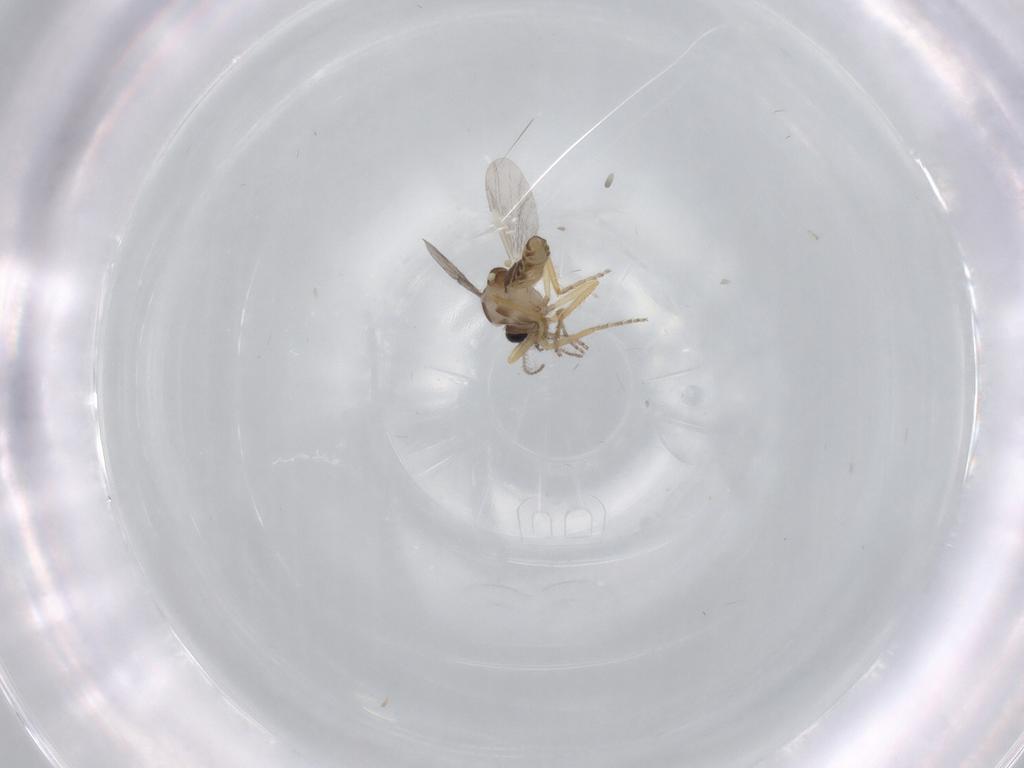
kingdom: Animalia
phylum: Arthropoda
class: Insecta
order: Diptera
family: Ceratopogonidae
